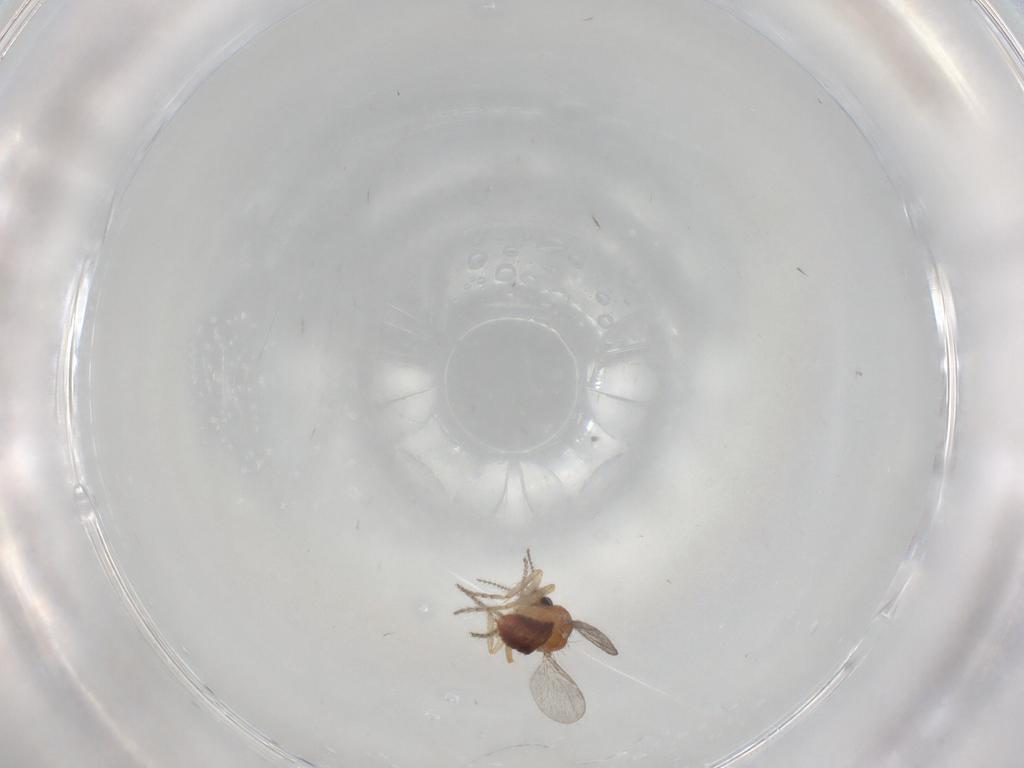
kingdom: Animalia
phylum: Arthropoda
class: Insecta
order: Diptera
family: Ceratopogonidae
